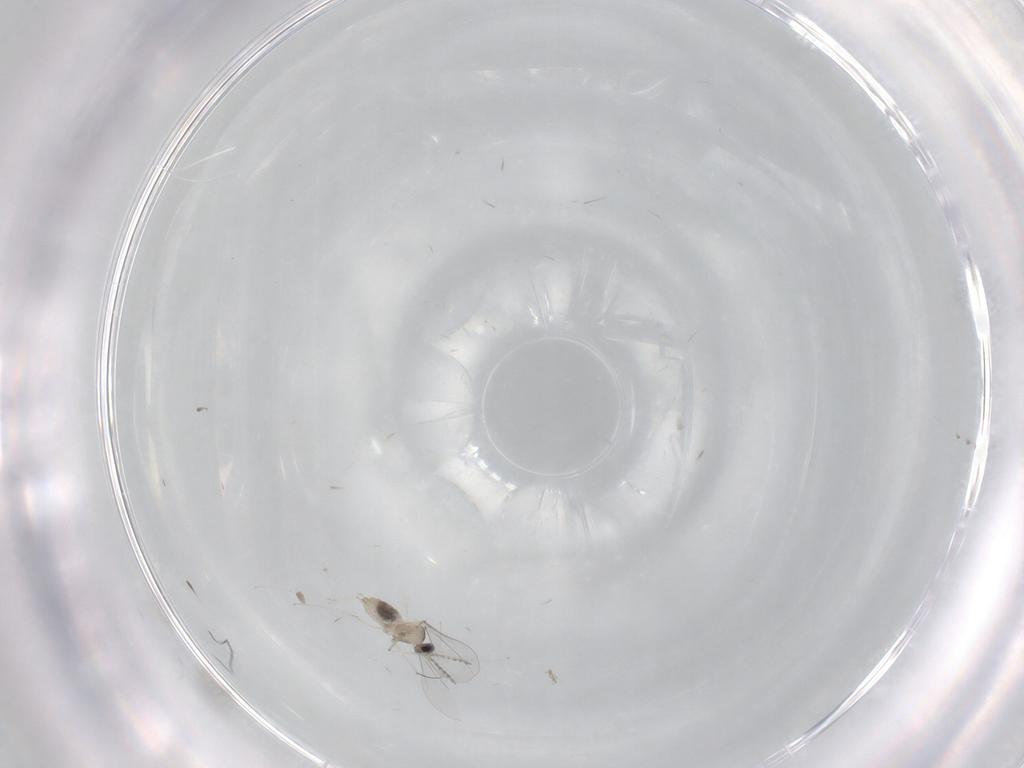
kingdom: Animalia
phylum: Arthropoda
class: Insecta
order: Diptera
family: Cecidomyiidae
